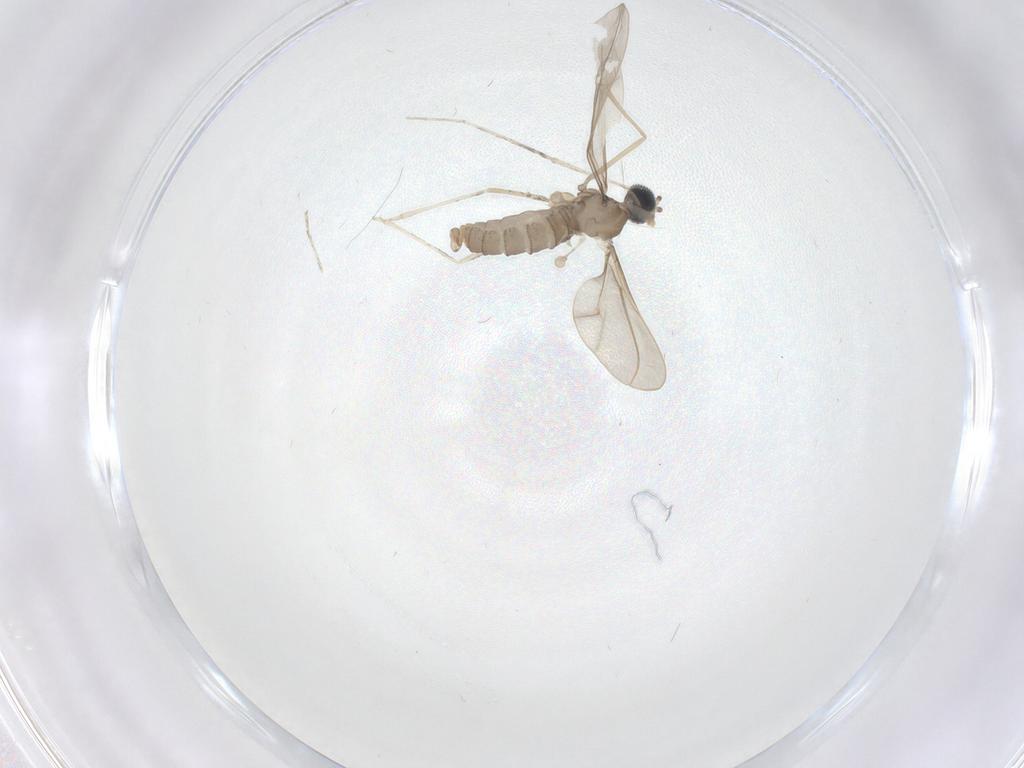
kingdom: Animalia
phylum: Arthropoda
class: Insecta
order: Diptera
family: Cecidomyiidae
